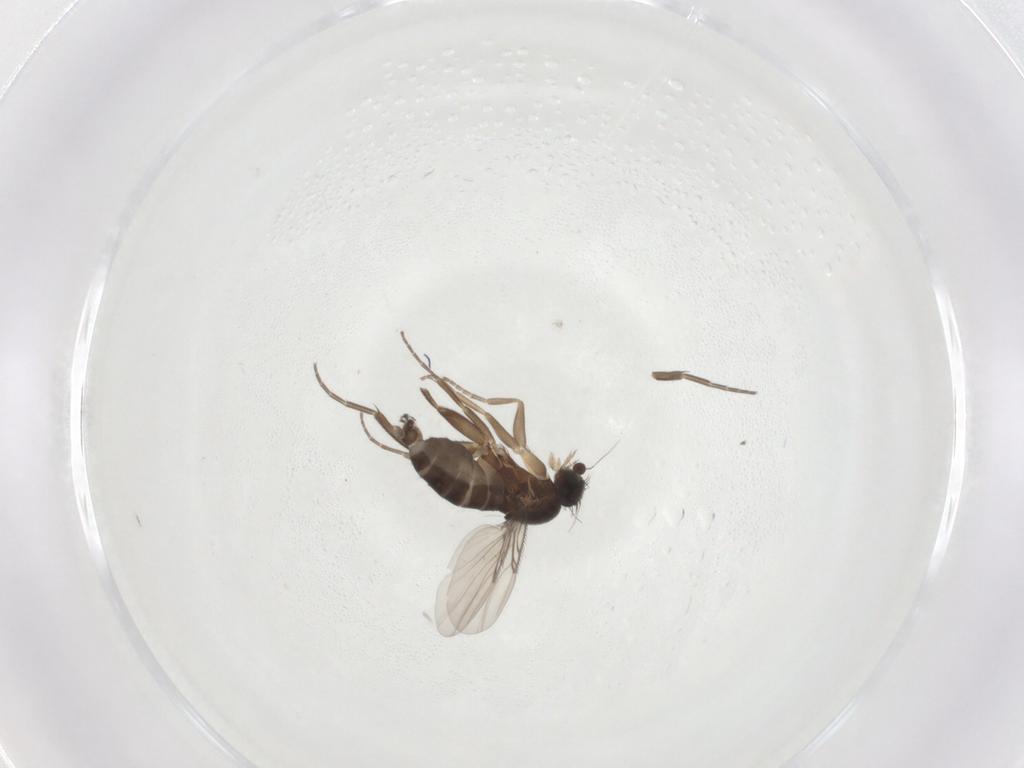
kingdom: Animalia
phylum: Arthropoda
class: Insecta
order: Diptera
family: Phoridae
